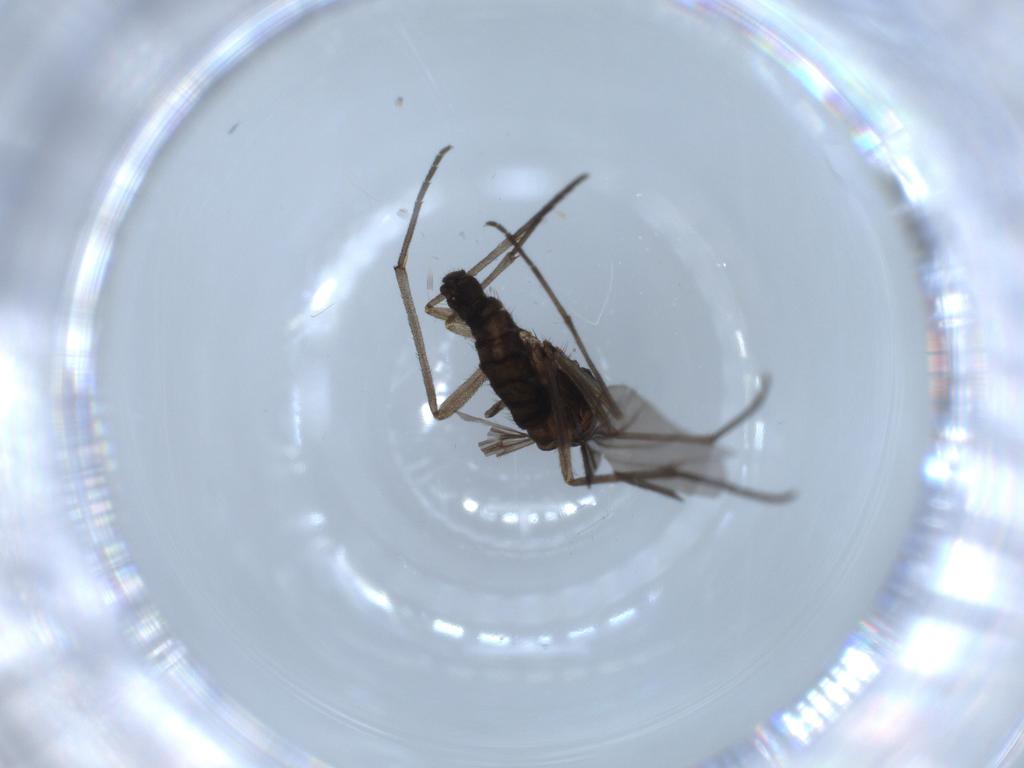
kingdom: Animalia
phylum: Arthropoda
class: Insecta
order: Diptera
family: Sciaridae
